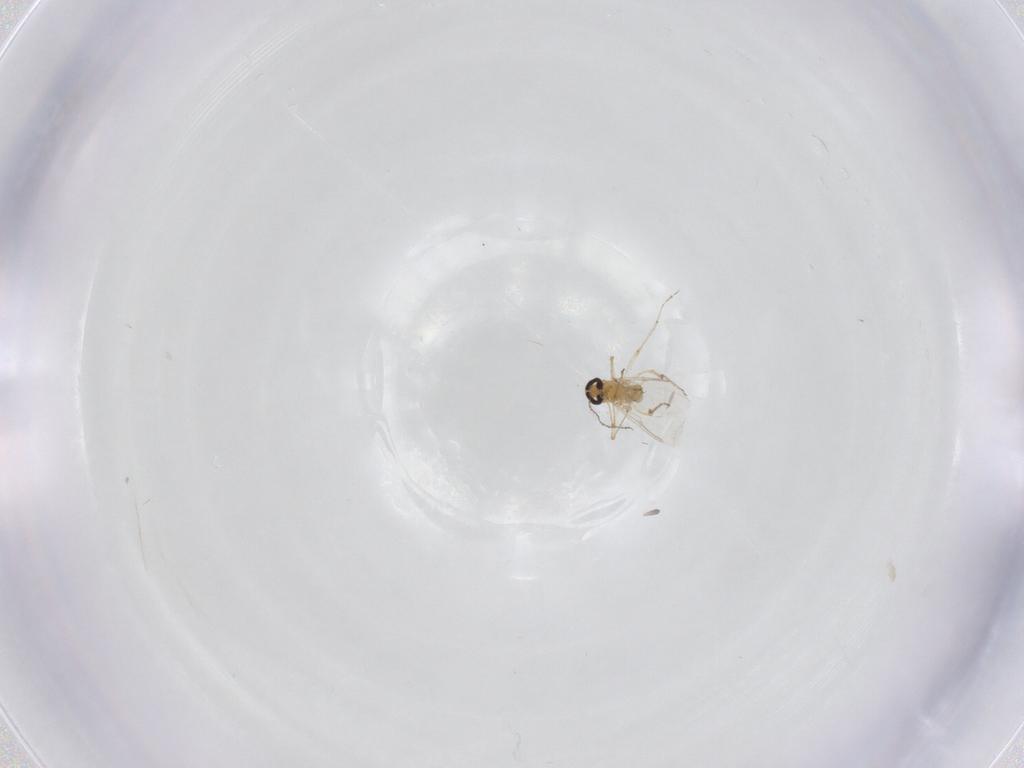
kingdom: Animalia
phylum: Arthropoda
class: Insecta
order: Diptera
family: Ceratopogonidae
